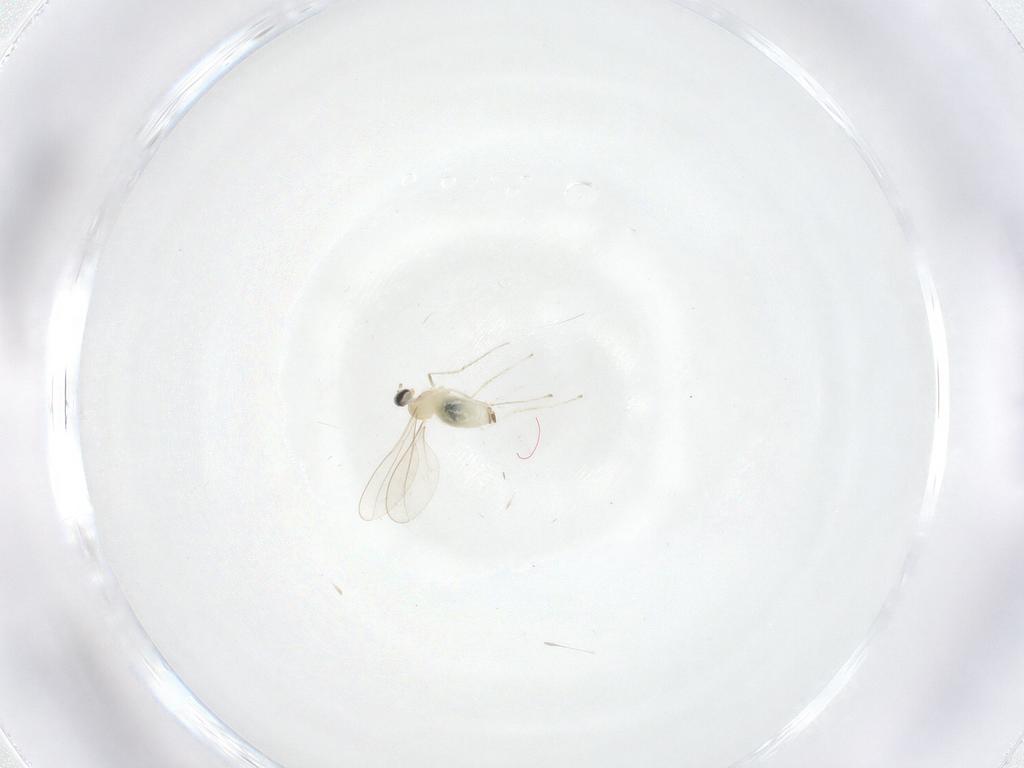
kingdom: Animalia
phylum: Arthropoda
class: Insecta
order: Diptera
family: Cecidomyiidae
